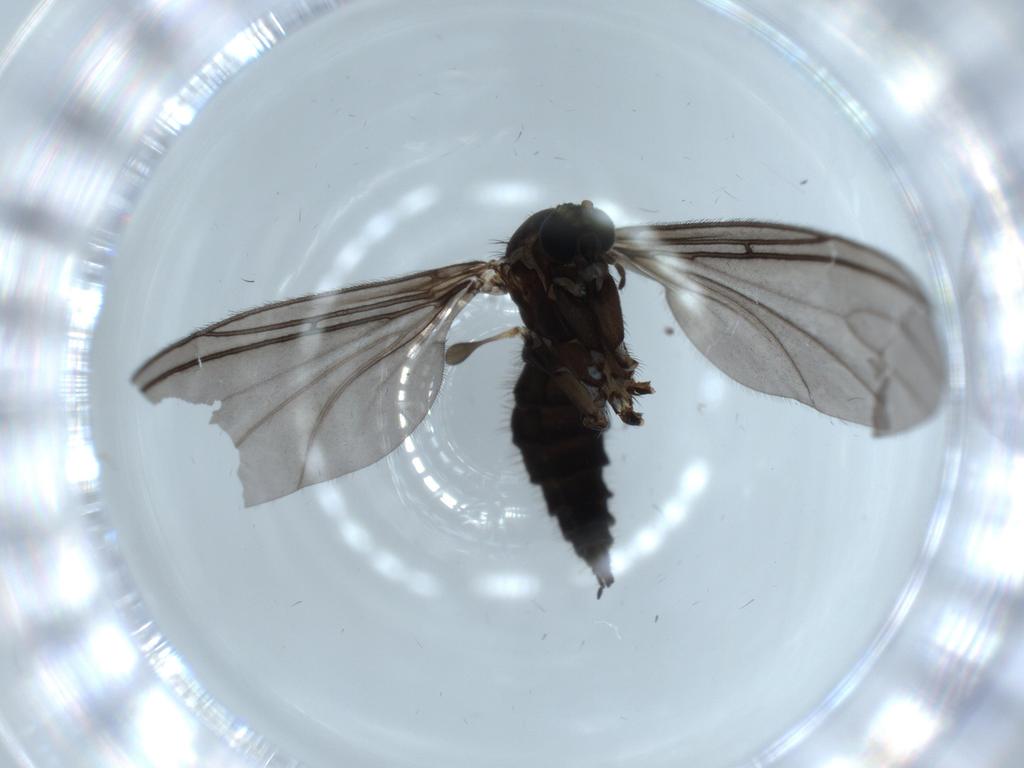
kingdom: Animalia
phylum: Arthropoda
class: Insecta
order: Diptera
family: Sciaridae
